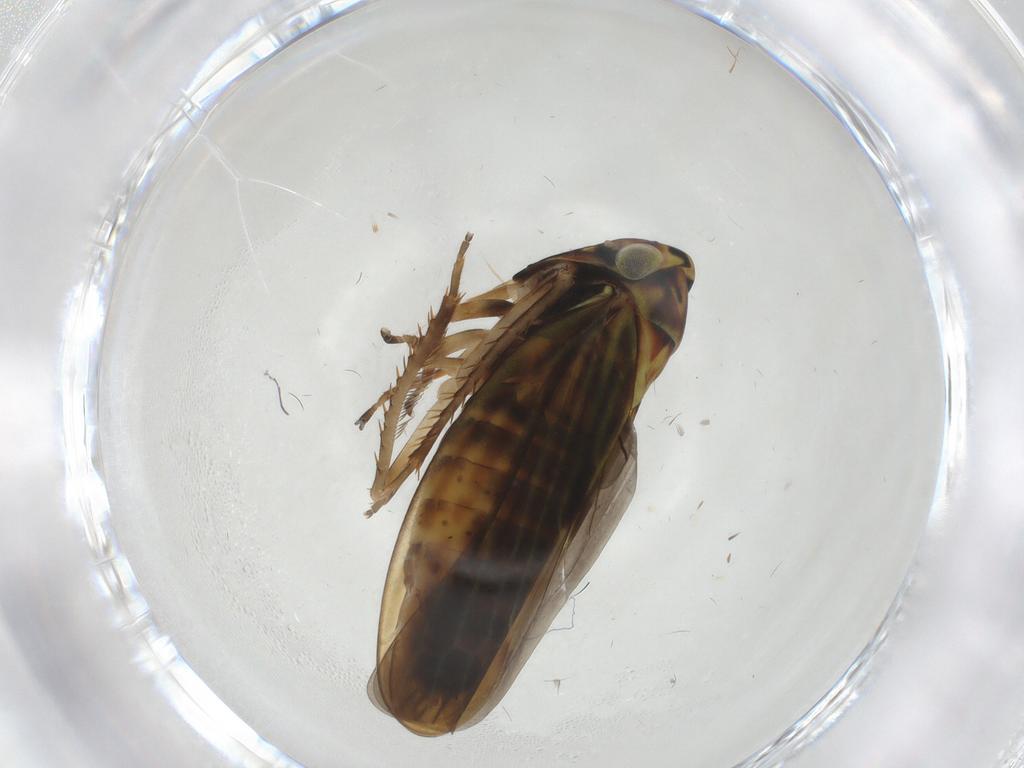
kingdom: Animalia
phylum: Arthropoda
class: Insecta
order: Hemiptera
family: Cicadellidae
